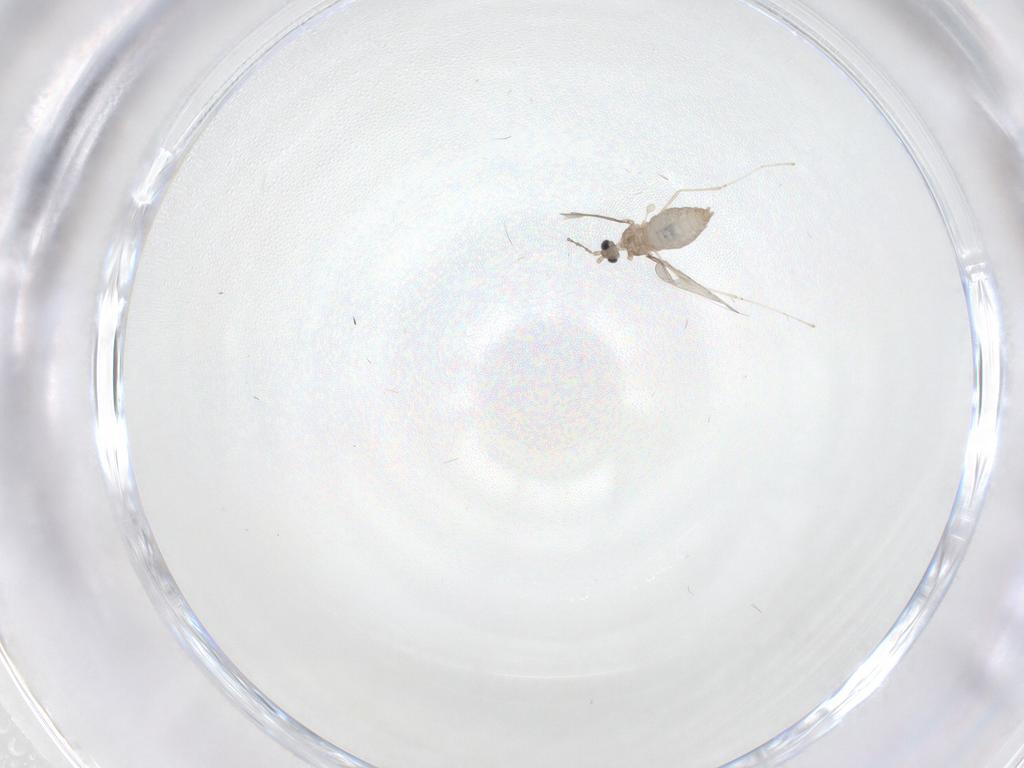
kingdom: Animalia
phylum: Arthropoda
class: Insecta
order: Diptera
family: Cecidomyiidae
